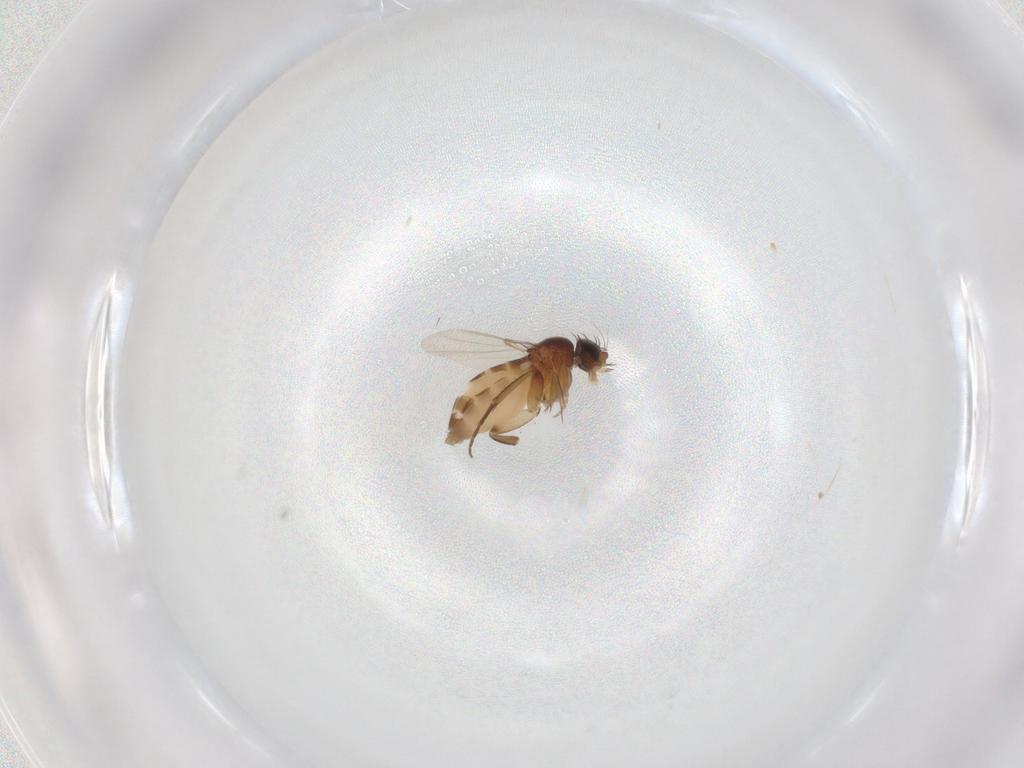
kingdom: Animalia
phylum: Arthropoda
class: Insecta
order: Diptera
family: Phoridae
